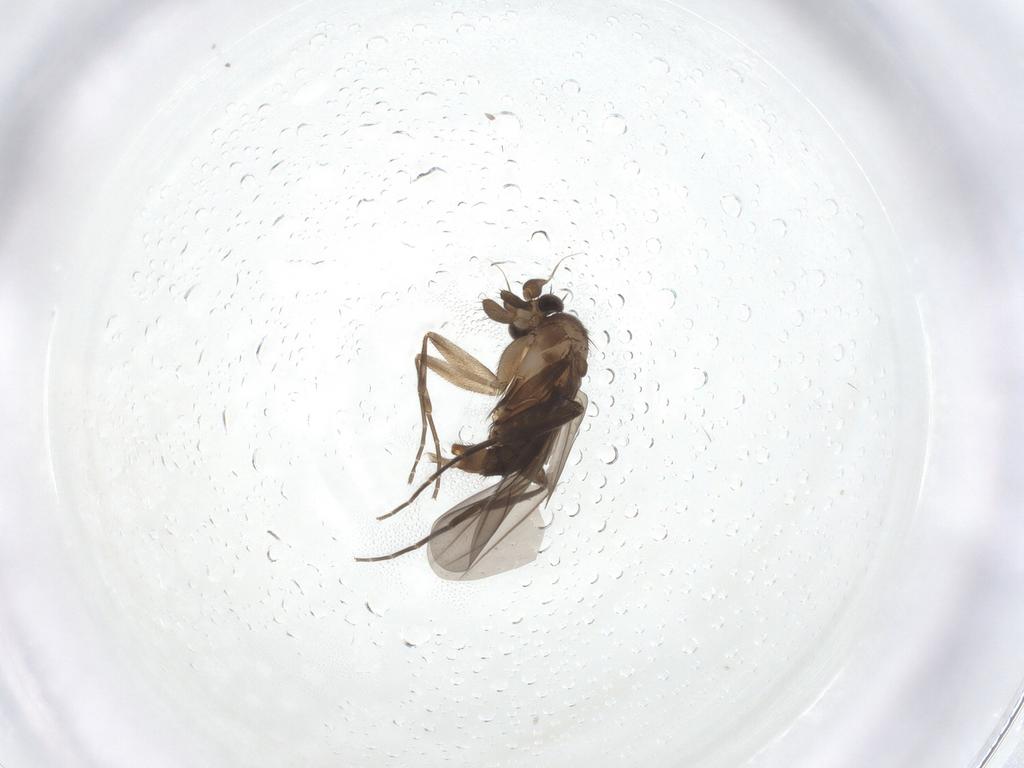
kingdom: Animalia
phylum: Arthropoda
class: Insecta
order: Diptera
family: Phoridae
